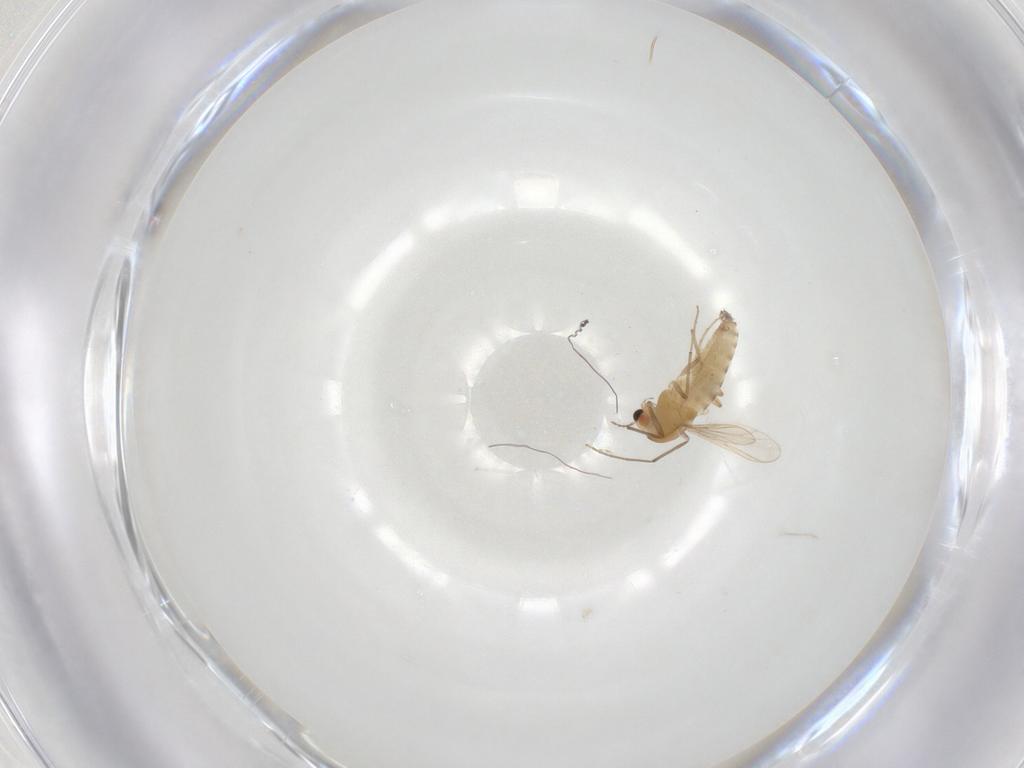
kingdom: Animalia
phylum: Arthropoda
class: Insecta
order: Diptera
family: Chironomidae
